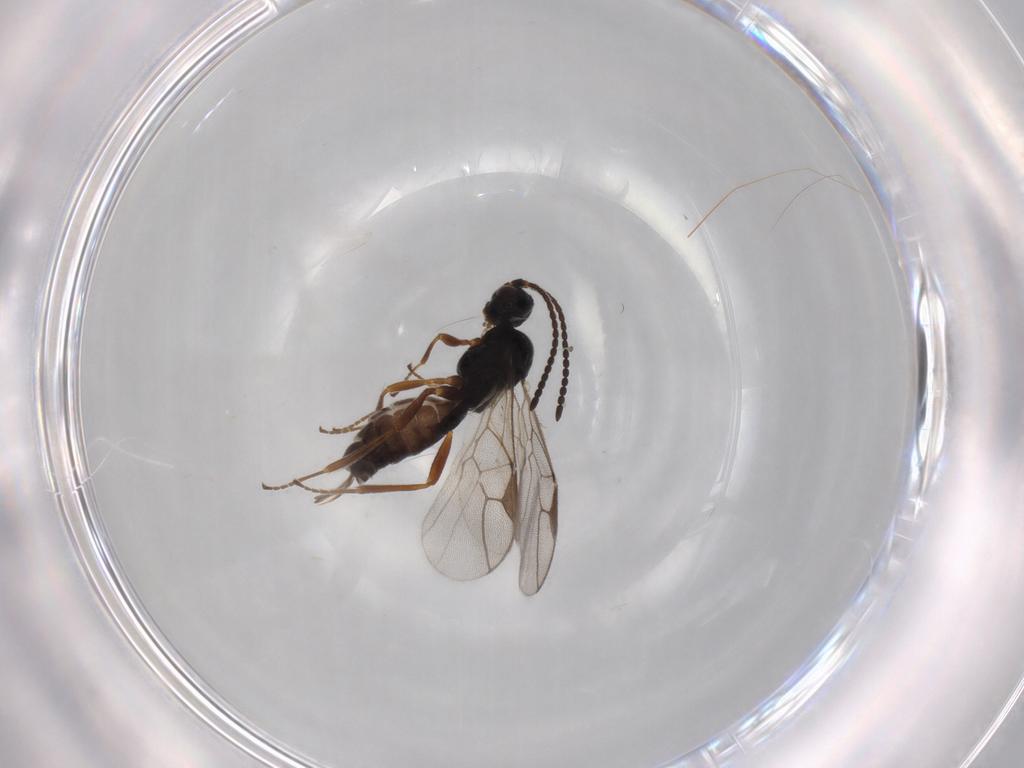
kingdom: Animalia
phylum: Arthropoda
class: Insecta
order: Hymenoptera
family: Braconidae
